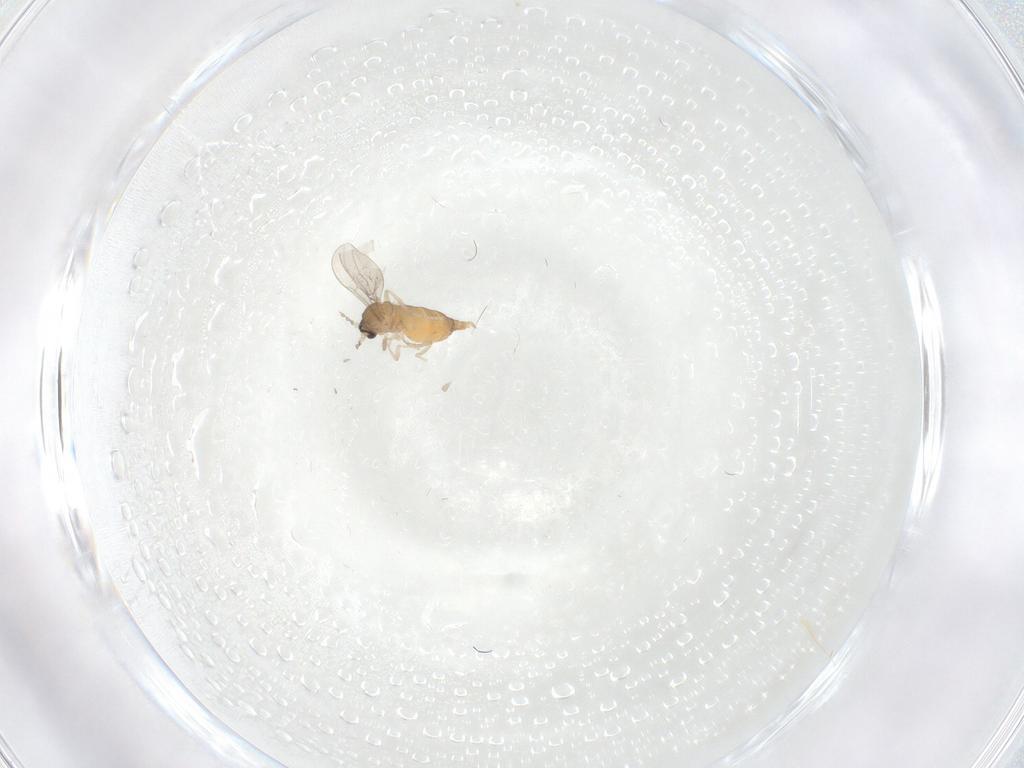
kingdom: Animalia
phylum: Arthropoda
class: Insecta
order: Diptera
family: Cecidomyiidae
